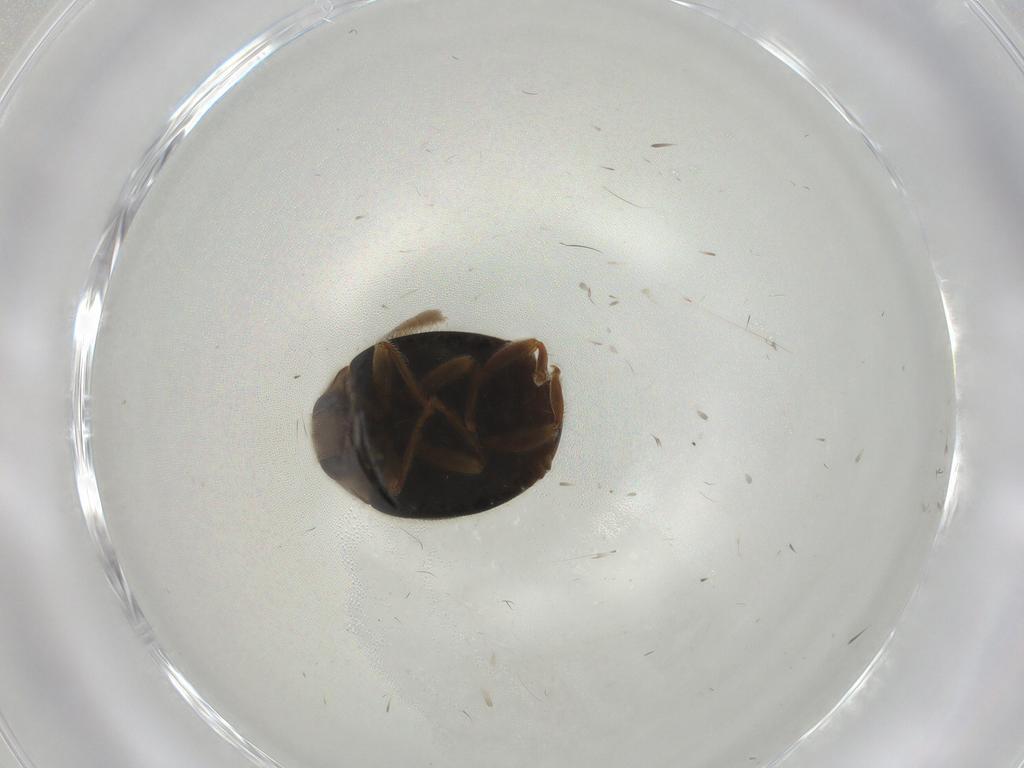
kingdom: Animalia
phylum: Arthropoda
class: Insecta
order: Coleoptera
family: Coccinellidae
